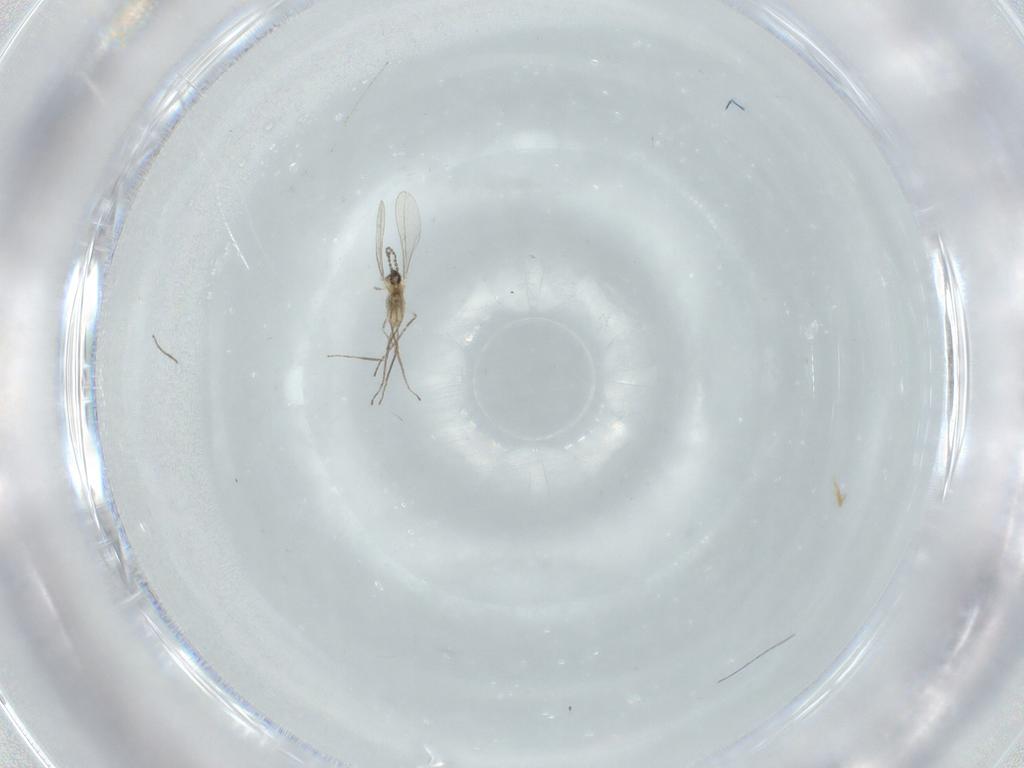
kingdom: Animalia
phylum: Arthropoda
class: Insecta
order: Diptera
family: Cecidomyiidae
